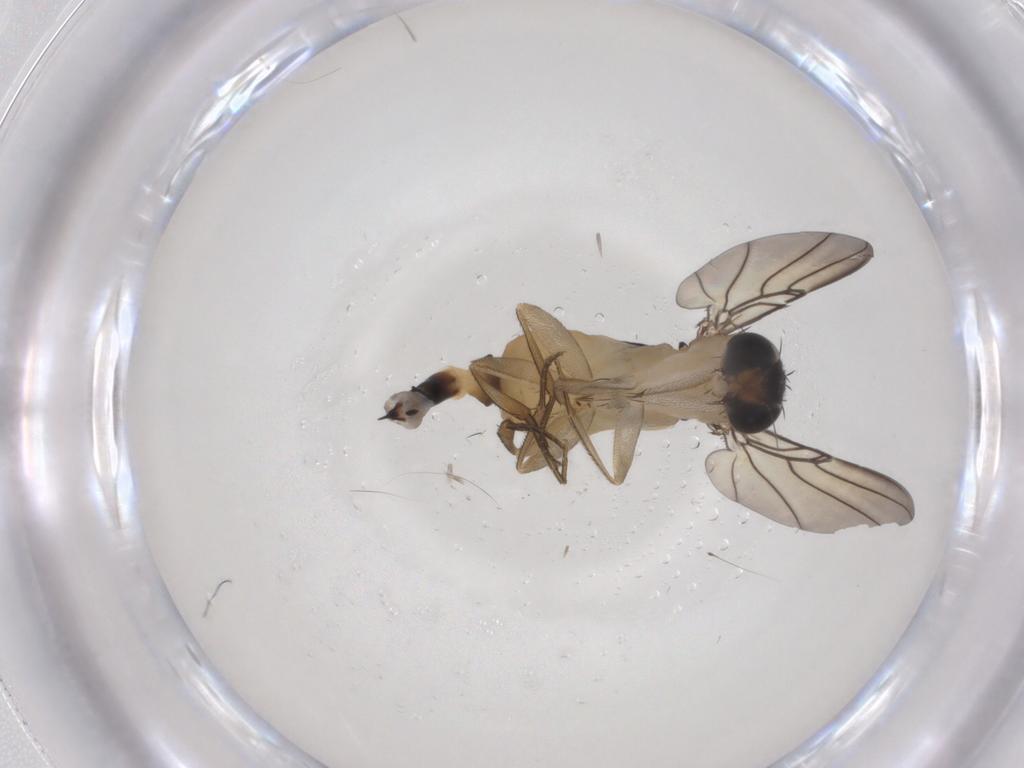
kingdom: Animalia
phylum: Arthropoda
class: Insecta
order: Diptera
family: Phoridae
